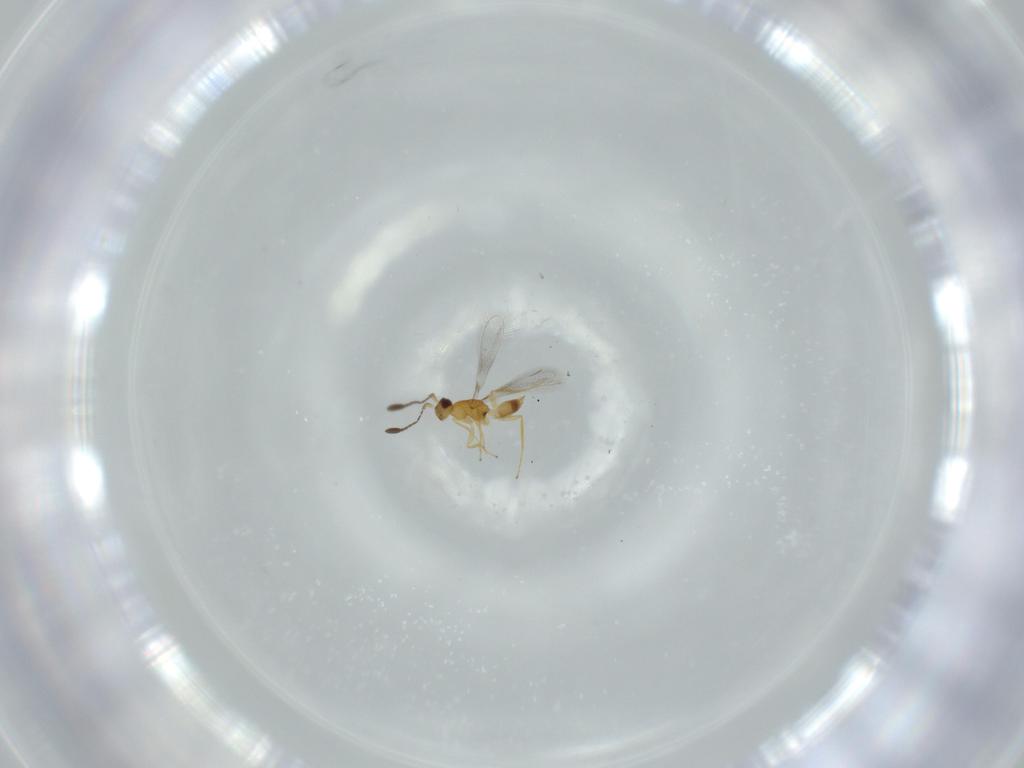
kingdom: Animalia
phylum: Arthropoda
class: Insecta
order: Hymenoptera
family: Mymaridae
